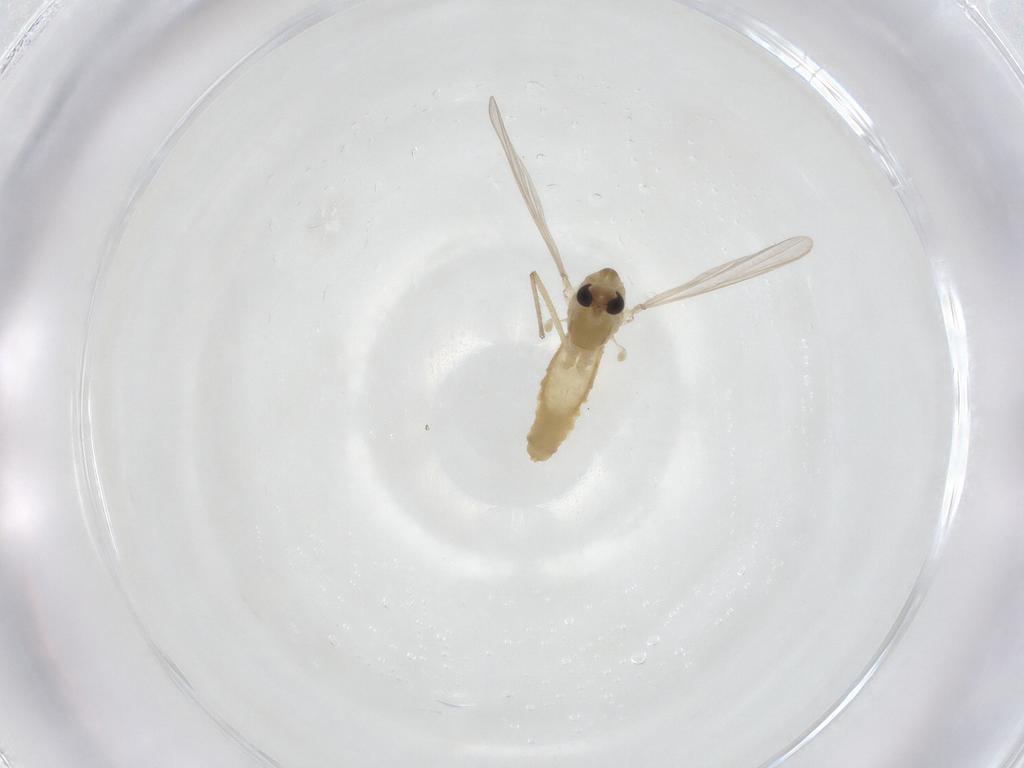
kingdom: Animalia
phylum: Arthropoda
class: Insecta
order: Diptera
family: Chironomidae
